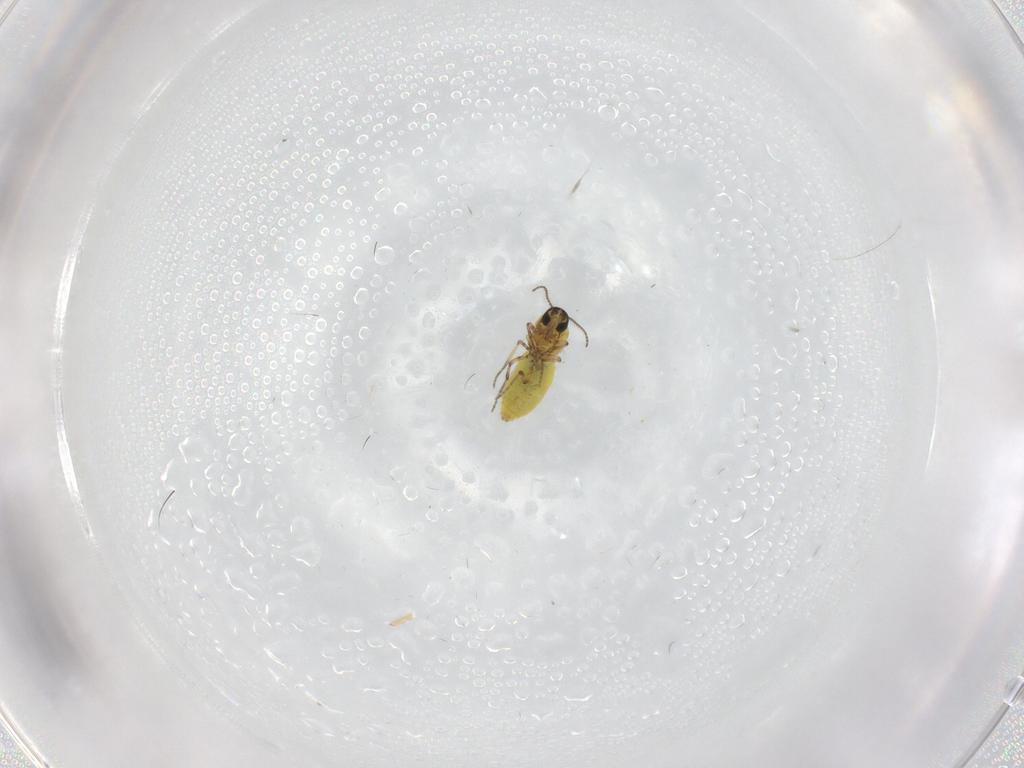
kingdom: Animalia
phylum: Arthropoda
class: Insecta
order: Diptera
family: Ceratopogonidae
